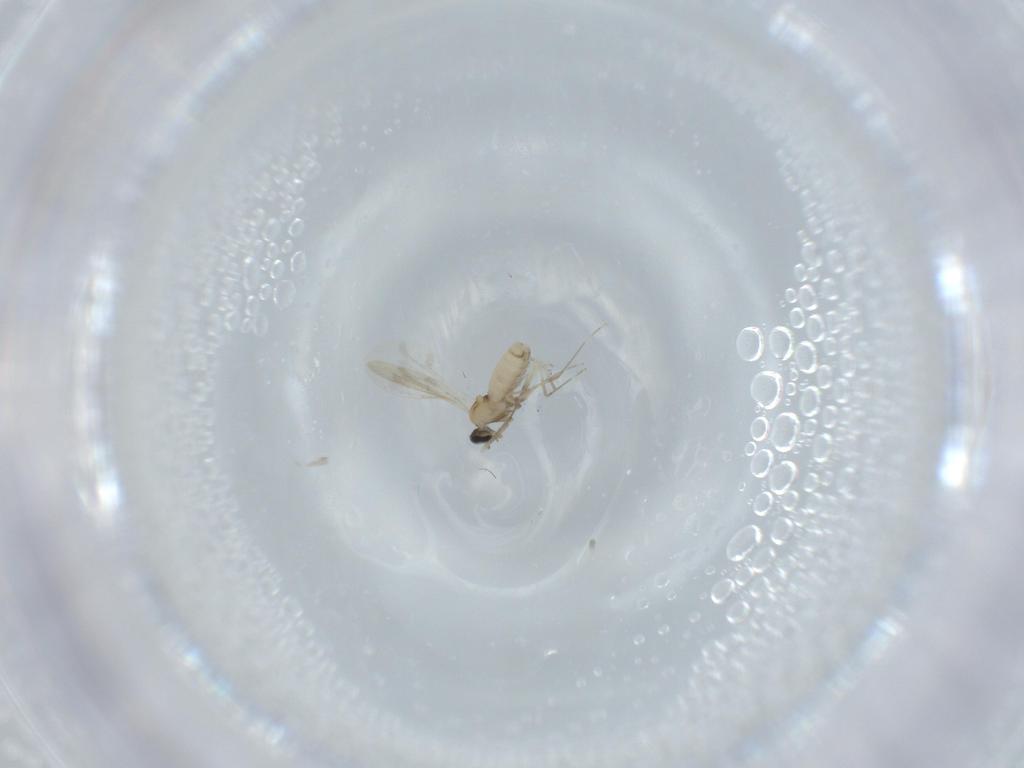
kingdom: Animalia
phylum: Arthropoda
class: Insecta
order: Diptera
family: Cecidomyiidae
